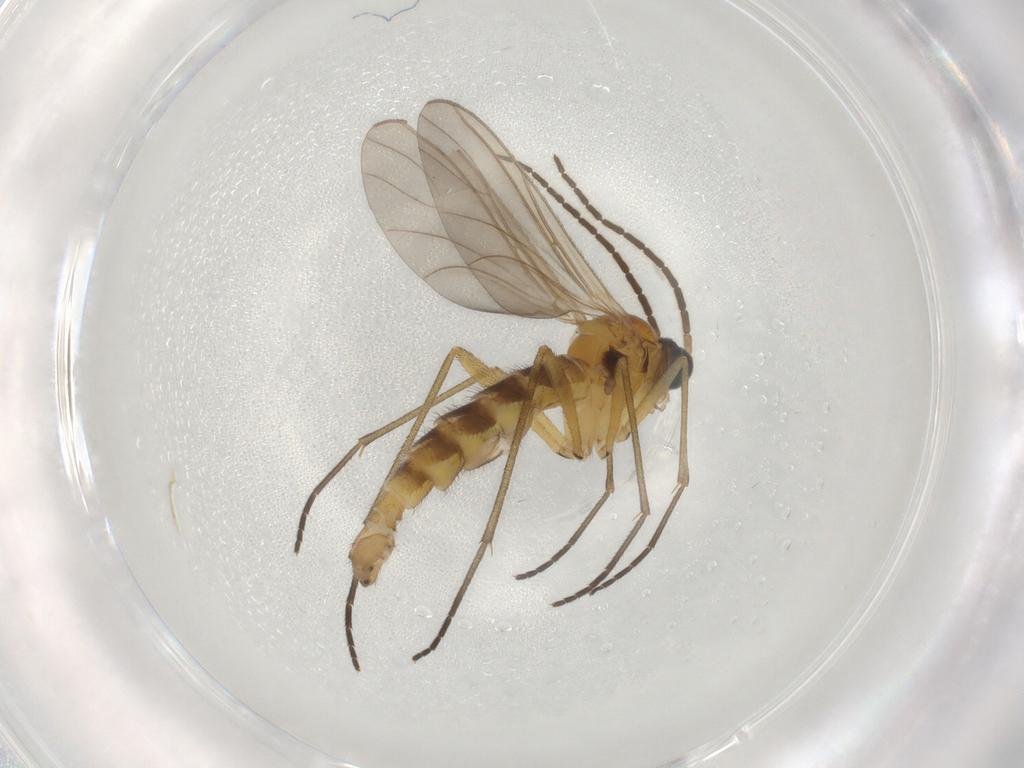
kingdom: Animalia
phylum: Arthropoda
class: Insecta
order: Diptera
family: Sciaridae
